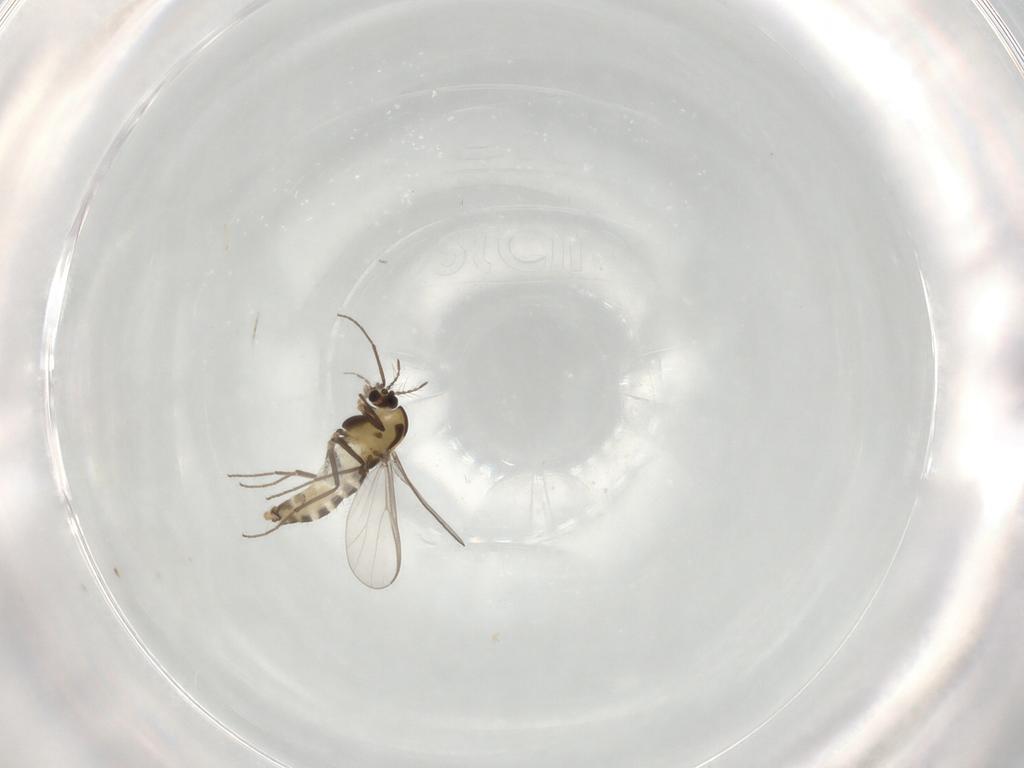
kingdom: Animalia
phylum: Arthropoda
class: Insecta
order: Diptera
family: Chironomidae
